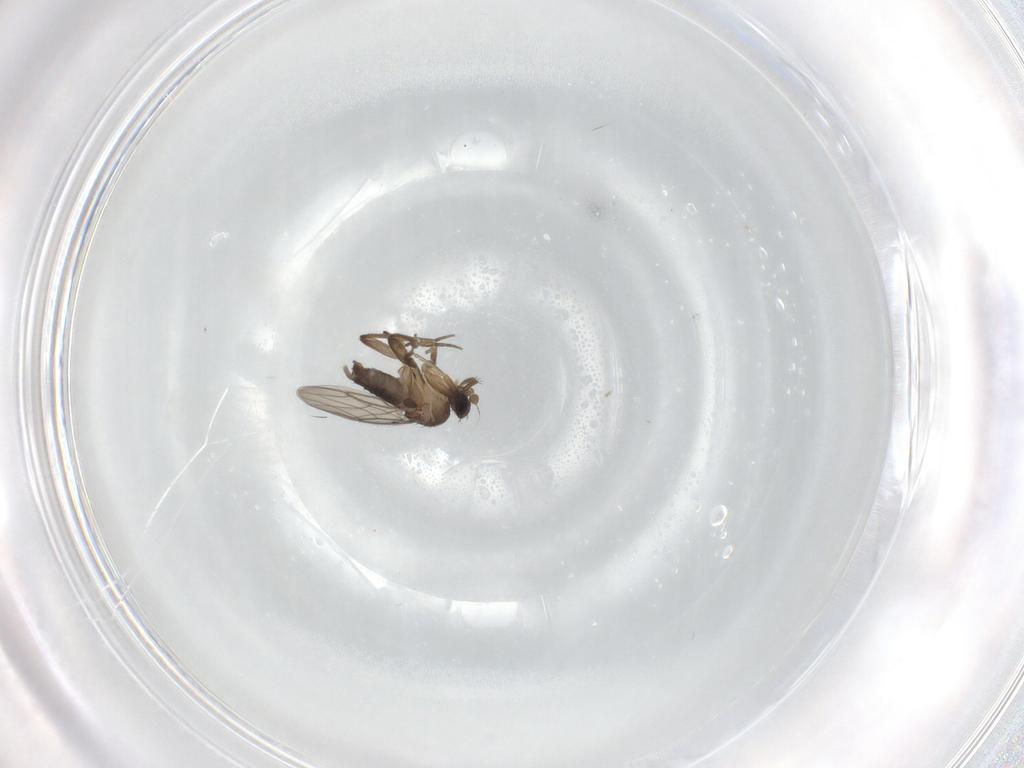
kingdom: Animalia
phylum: Arthropoda
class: Insecta
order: Diptera
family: Phoridae
